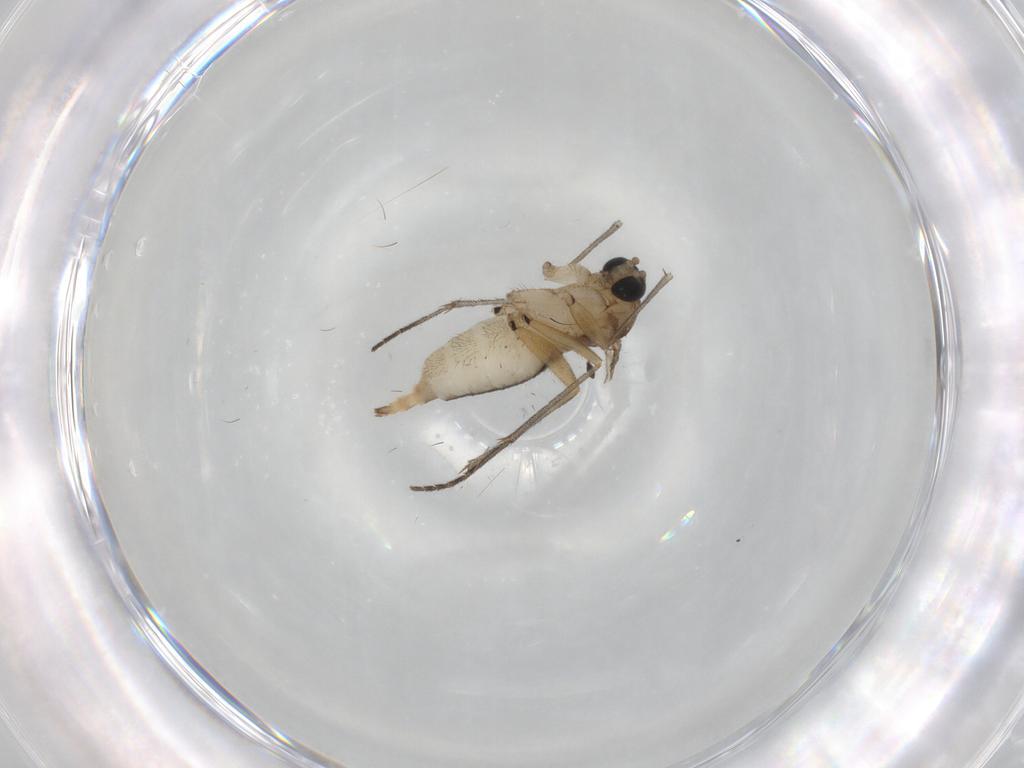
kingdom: Animalia
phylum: Arthropoda
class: Insecta
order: Diptera
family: Sciaridae
